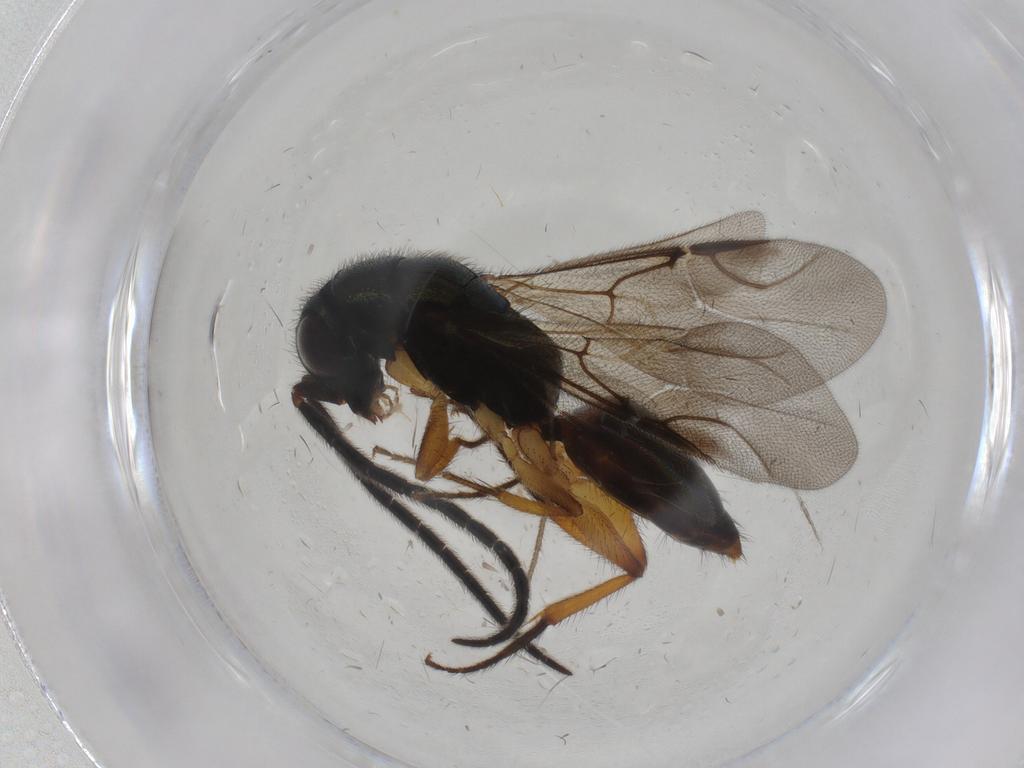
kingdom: Animalia
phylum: Arthropoda
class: Insecta
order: Hymenoptera
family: Chrysididae
